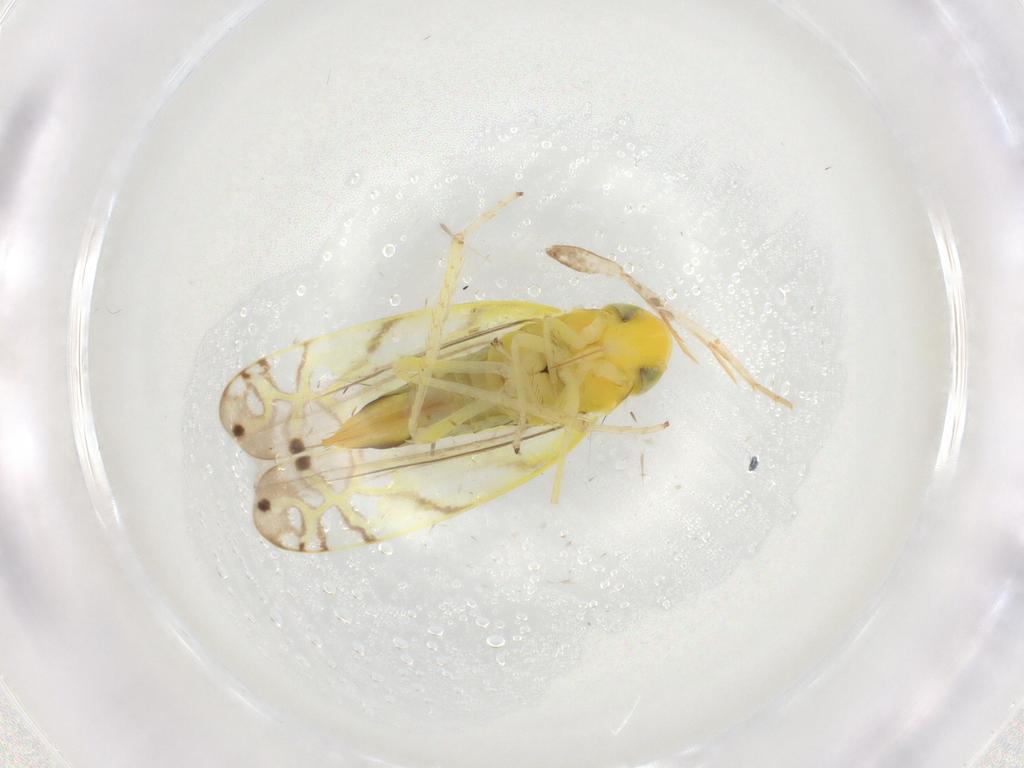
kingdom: Animalia
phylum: Arthropoda
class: Insecta
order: Hemiptera
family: Cicadellidae
